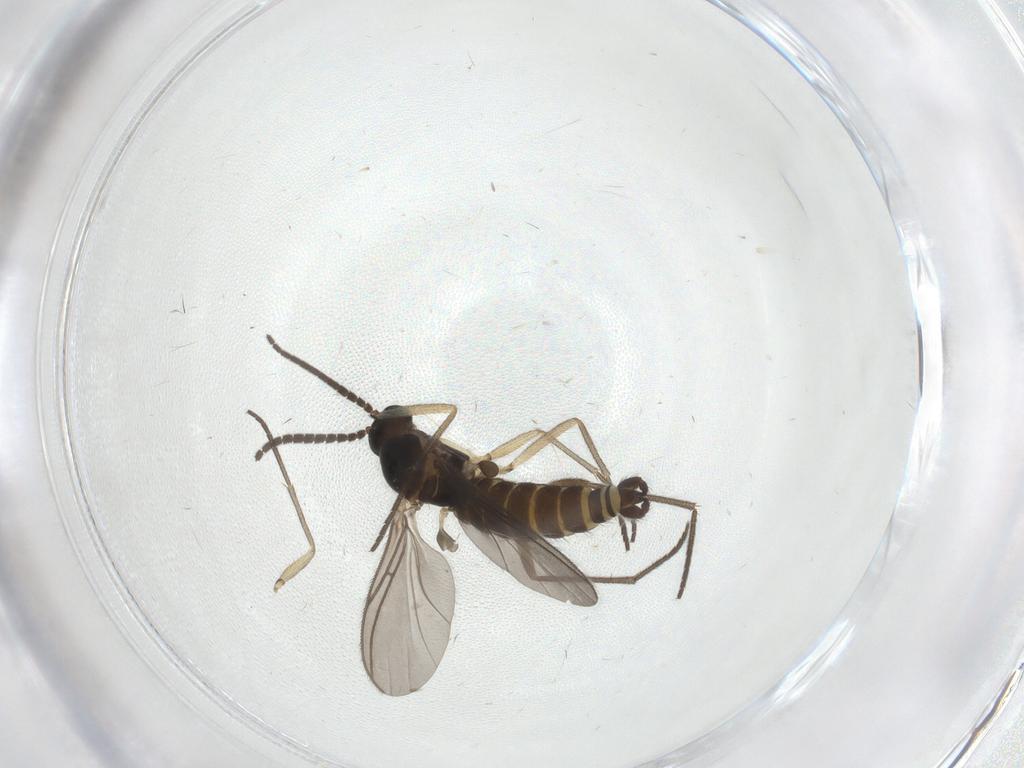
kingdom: Animalia
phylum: Arthropoda
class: Insecta
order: Diptera
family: Sciaridae
